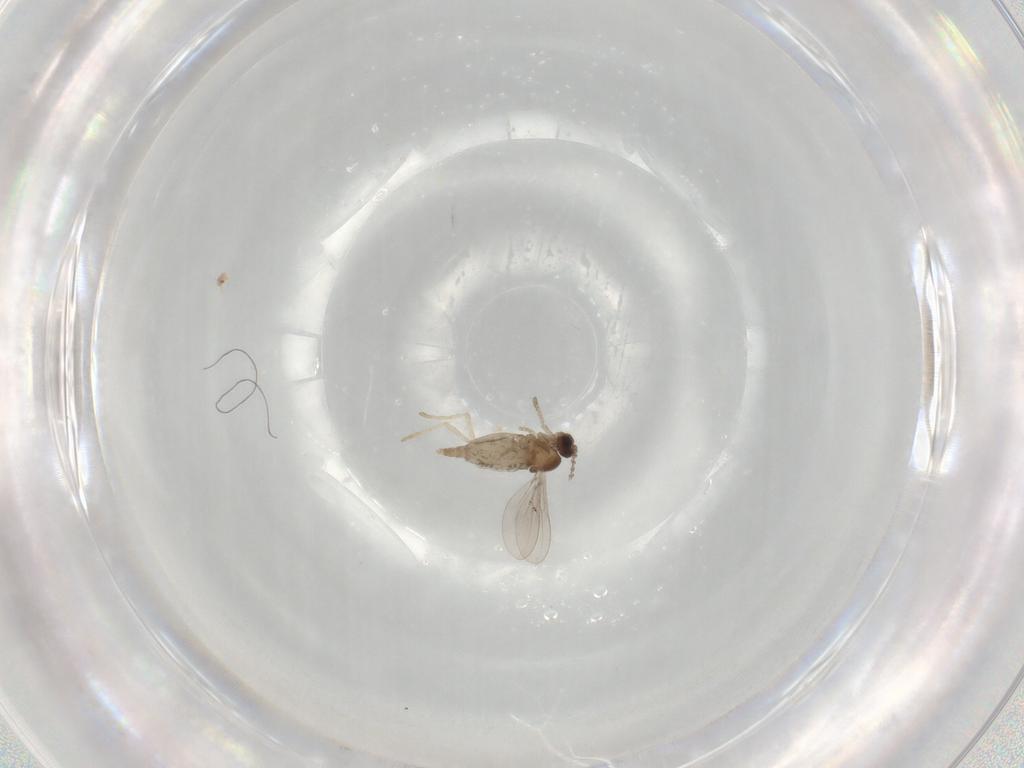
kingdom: Animalia
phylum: Arthropoda
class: Insecta
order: Diptera
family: Cecidomyiidae
